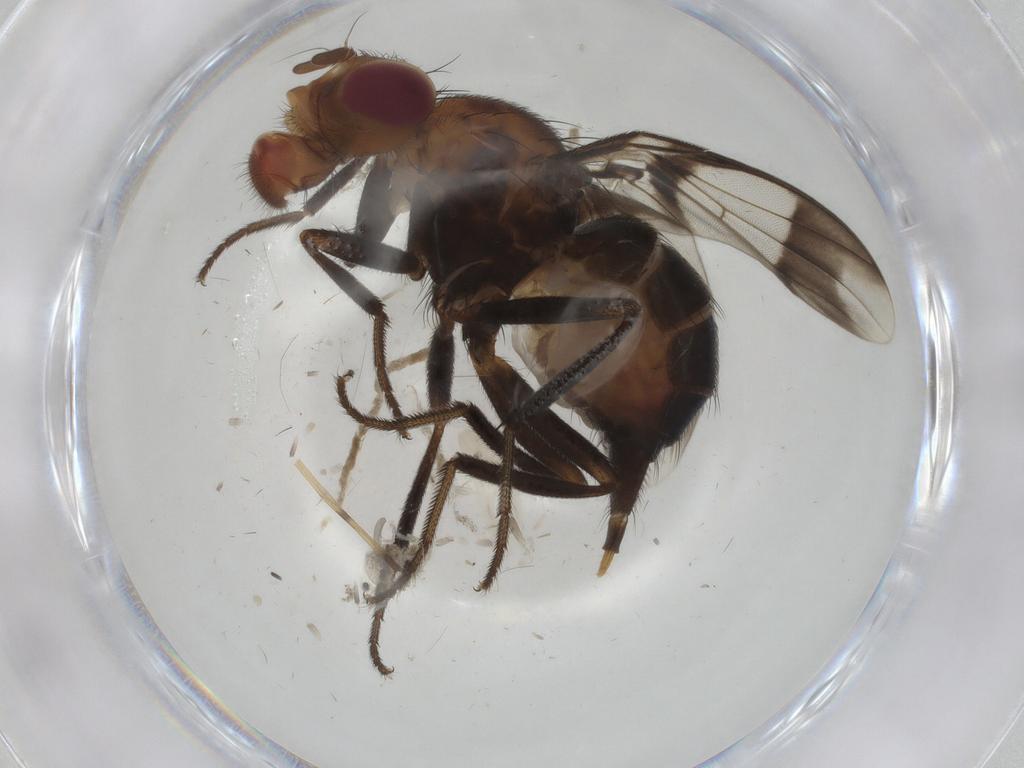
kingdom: Animalia
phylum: Arthropoda
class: Insecta
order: Diptera
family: Richardiidae
